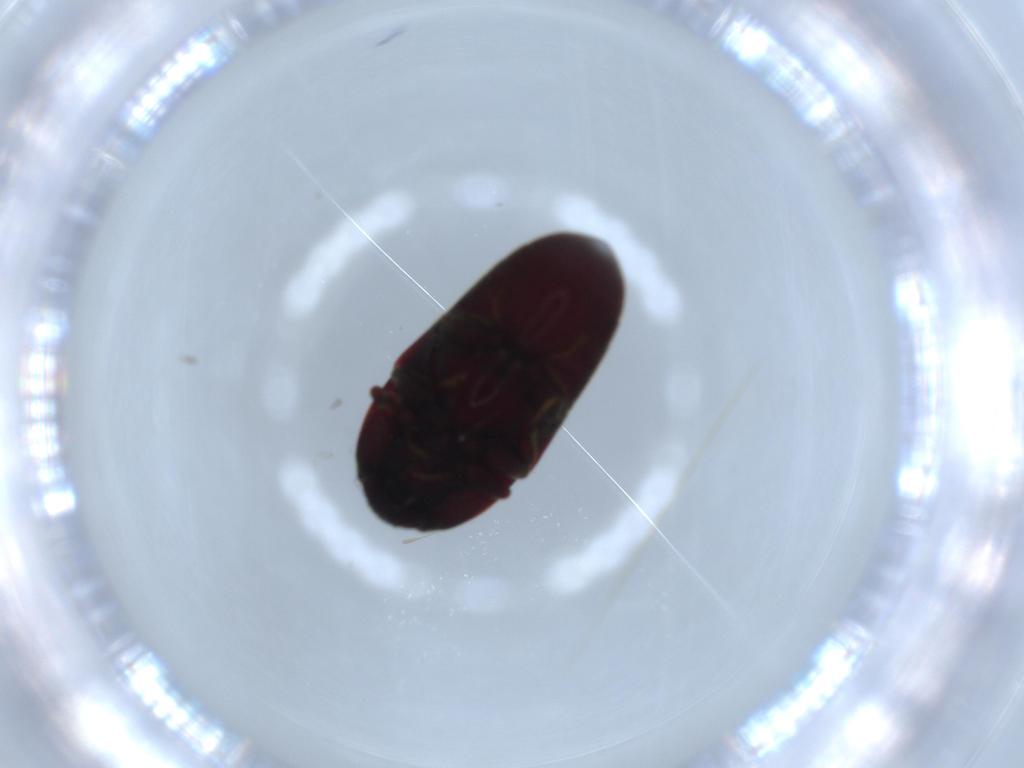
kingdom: Animalia
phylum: Arthropoda
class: Insecta
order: Coleoptera
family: Throscidae
